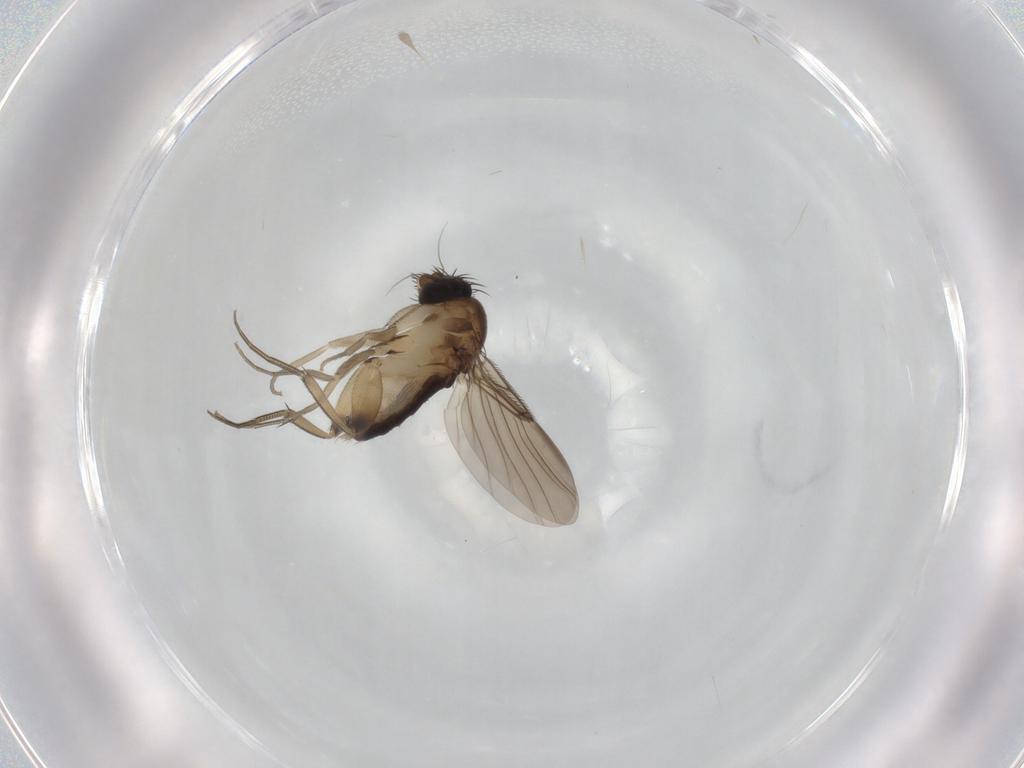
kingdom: Animalia
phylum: Arthropoda
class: Insecta
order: Diptera
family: Phoridae
